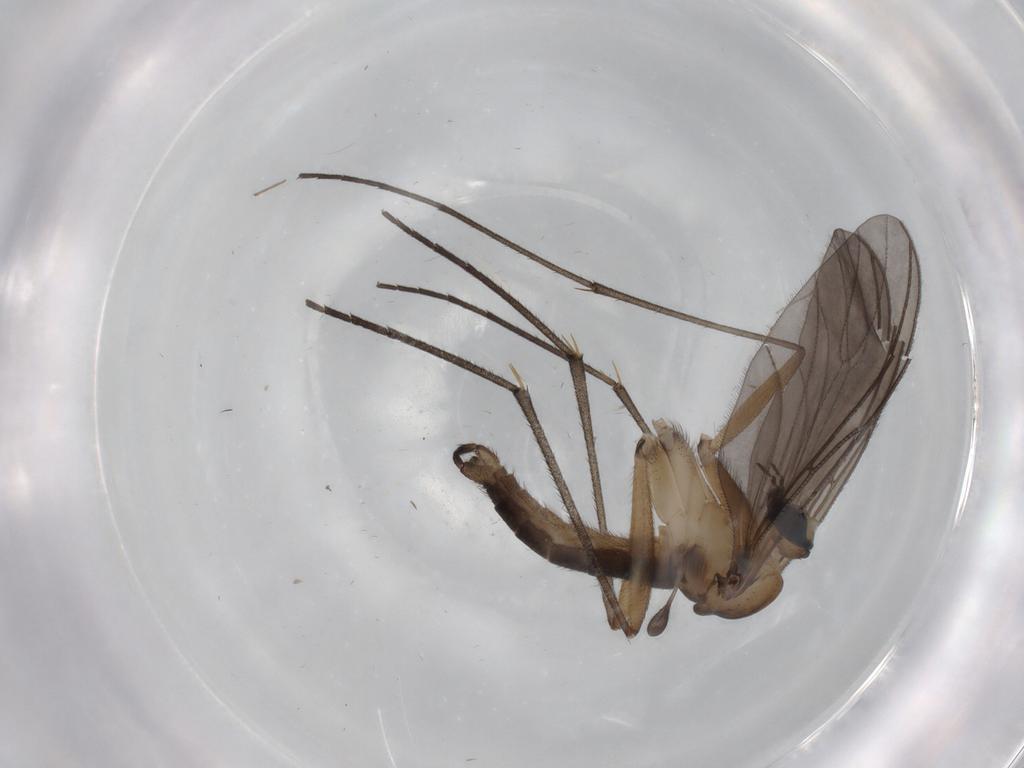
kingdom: Animalia
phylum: Arthropoda
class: Insecta
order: Diptera
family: Sciaridae
